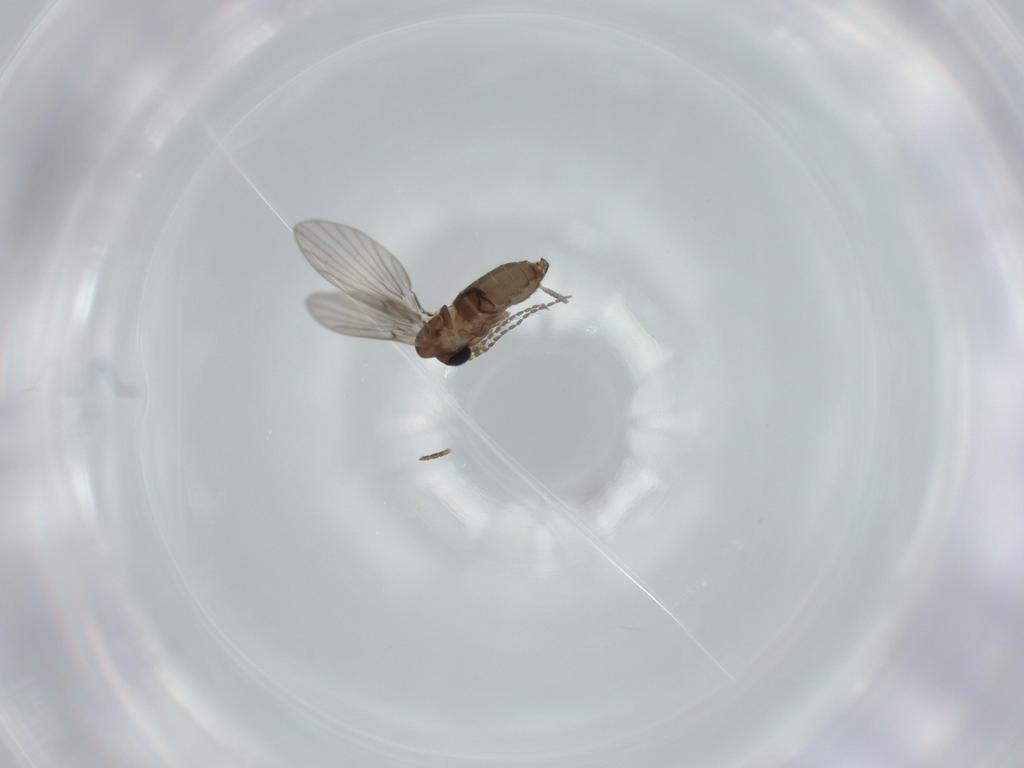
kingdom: Animalia
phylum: Arthropoda
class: Insecta
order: Diptera
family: Psychodidae
